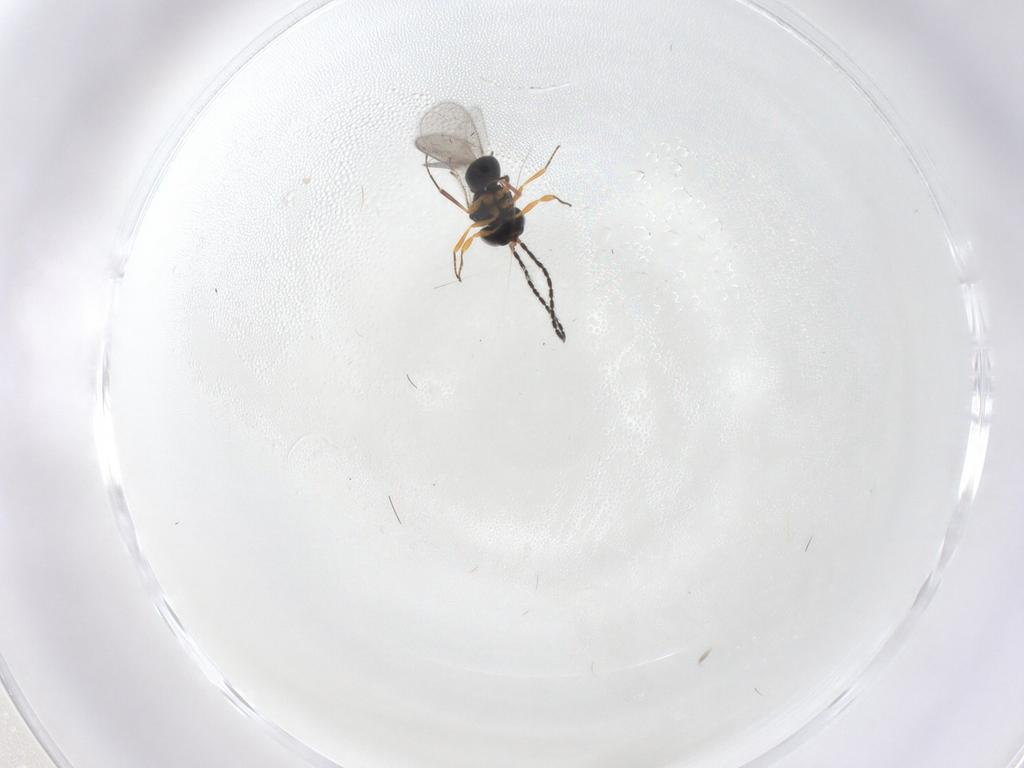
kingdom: Animalia
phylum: Arthropoda
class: Insecta
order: Hymenoptera
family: Scelionidae
